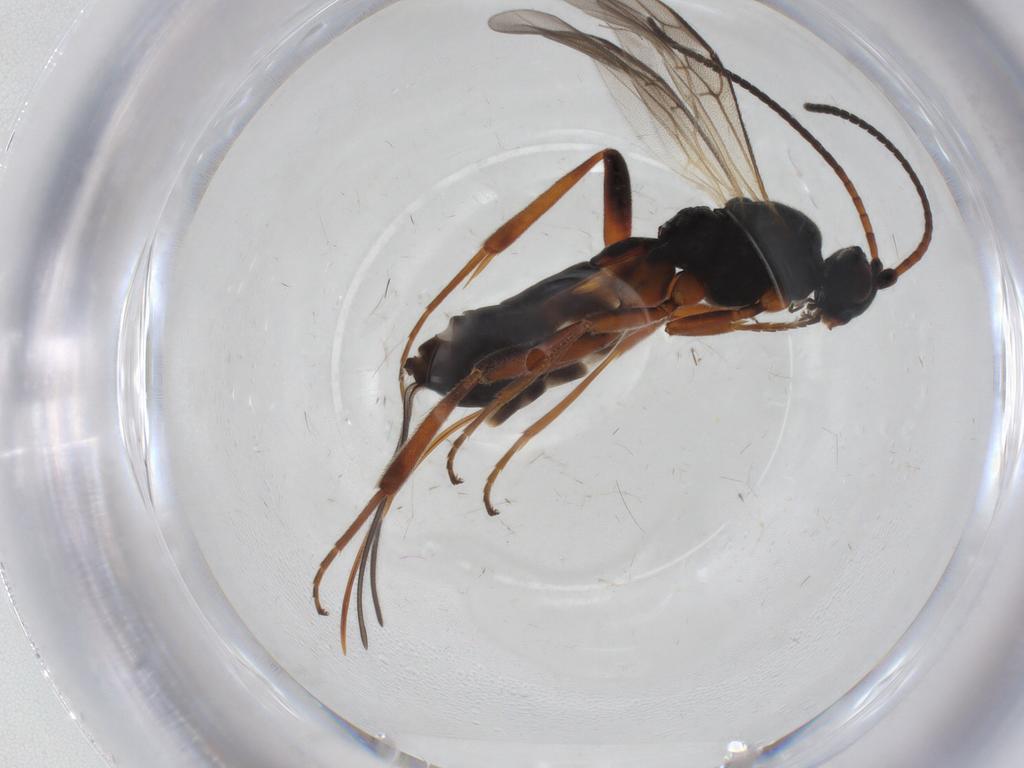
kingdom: Animalia
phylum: Arthropoda
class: Insecta
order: Hymenoptera
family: Braconidae
